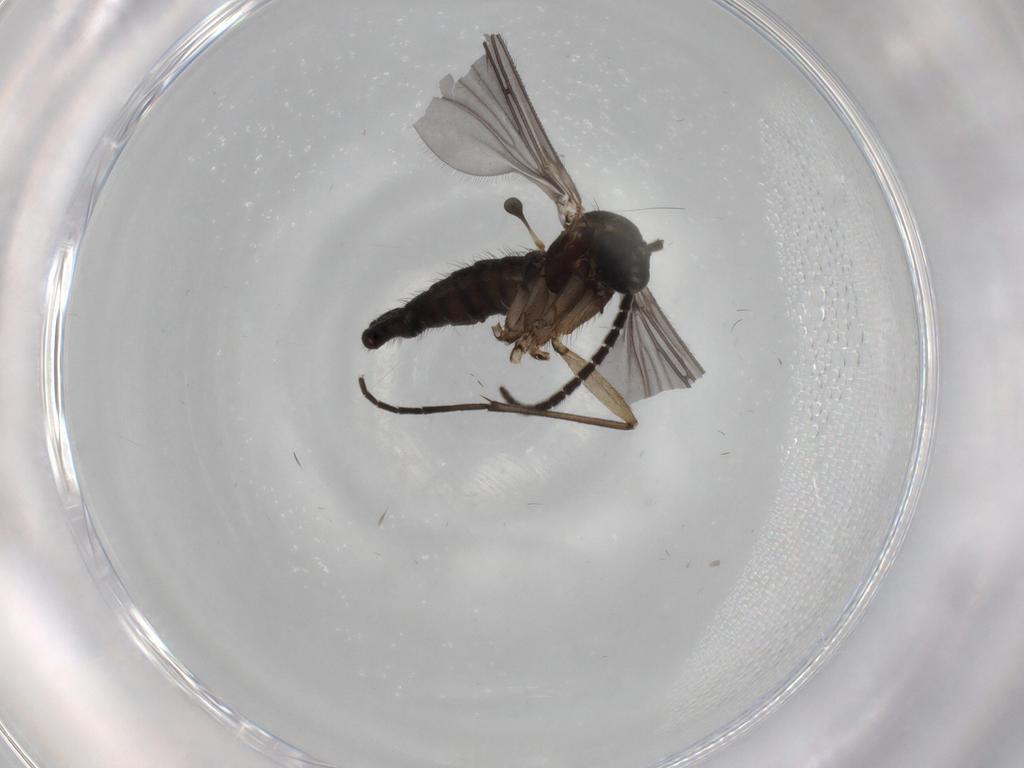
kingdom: Animalia
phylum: Arthropoda
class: Insecta
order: Diptera
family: Sciaridae
